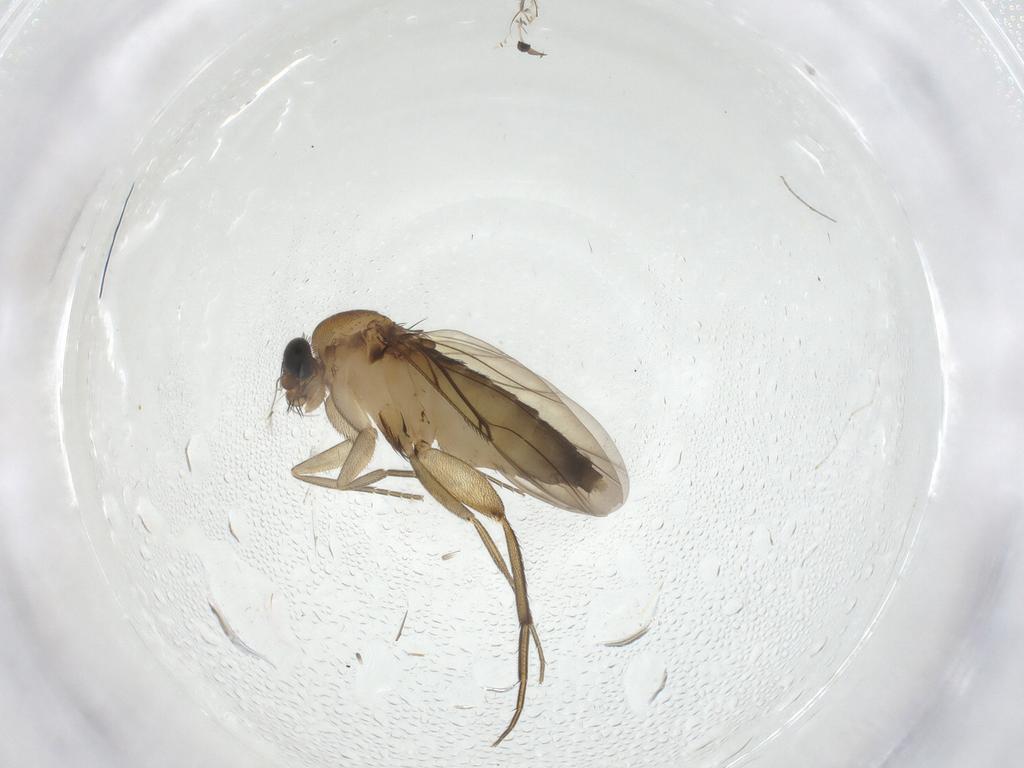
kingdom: Animalia
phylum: Arthropoda
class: Insecta
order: Diptera
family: Phoridae
